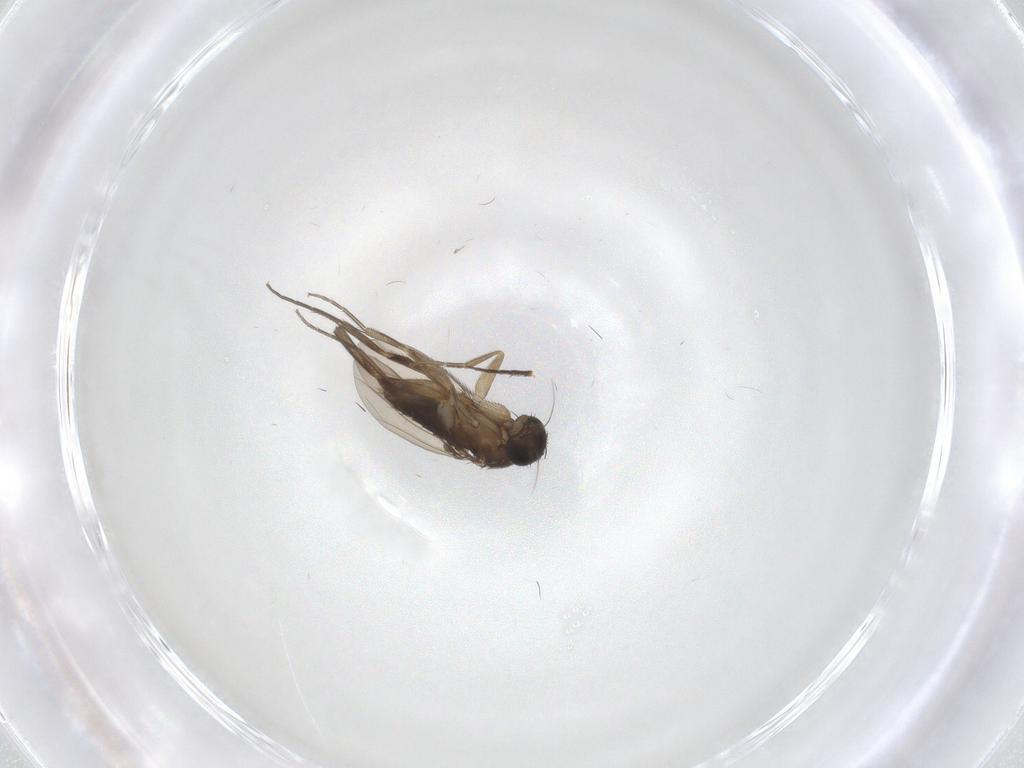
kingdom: Animalia
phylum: Arthropoda
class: Insecta
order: Diptera
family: Phoridae
